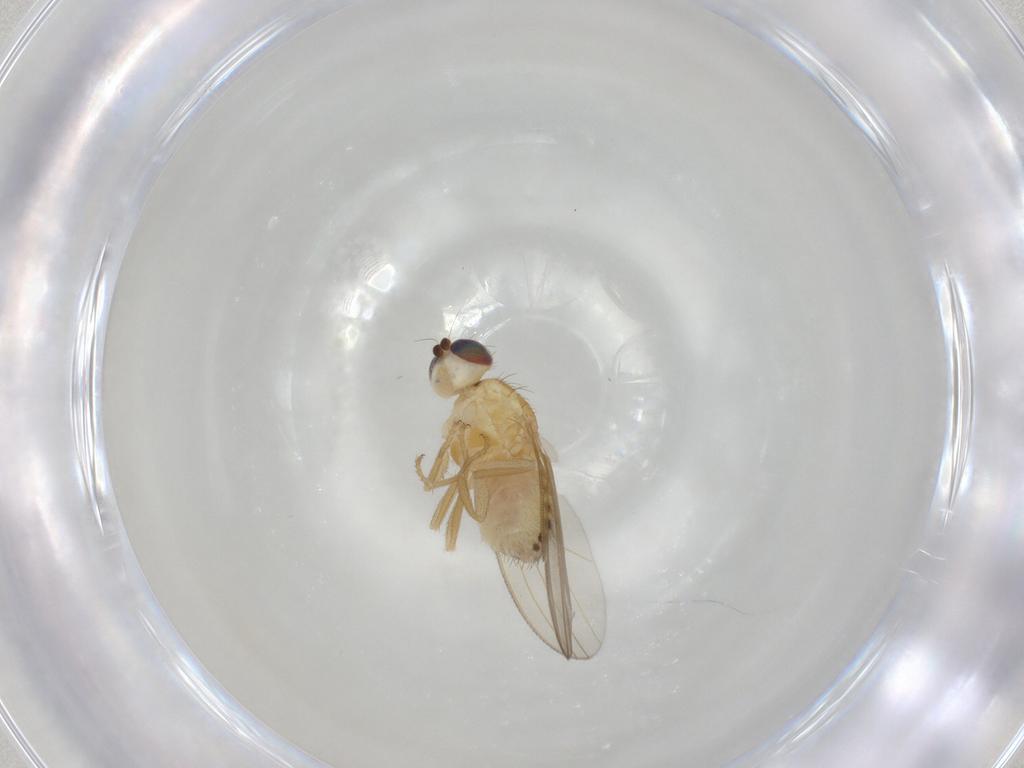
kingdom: Animalia
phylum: Arthropoda
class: Insecta
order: Diptera
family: Chyromyidae
